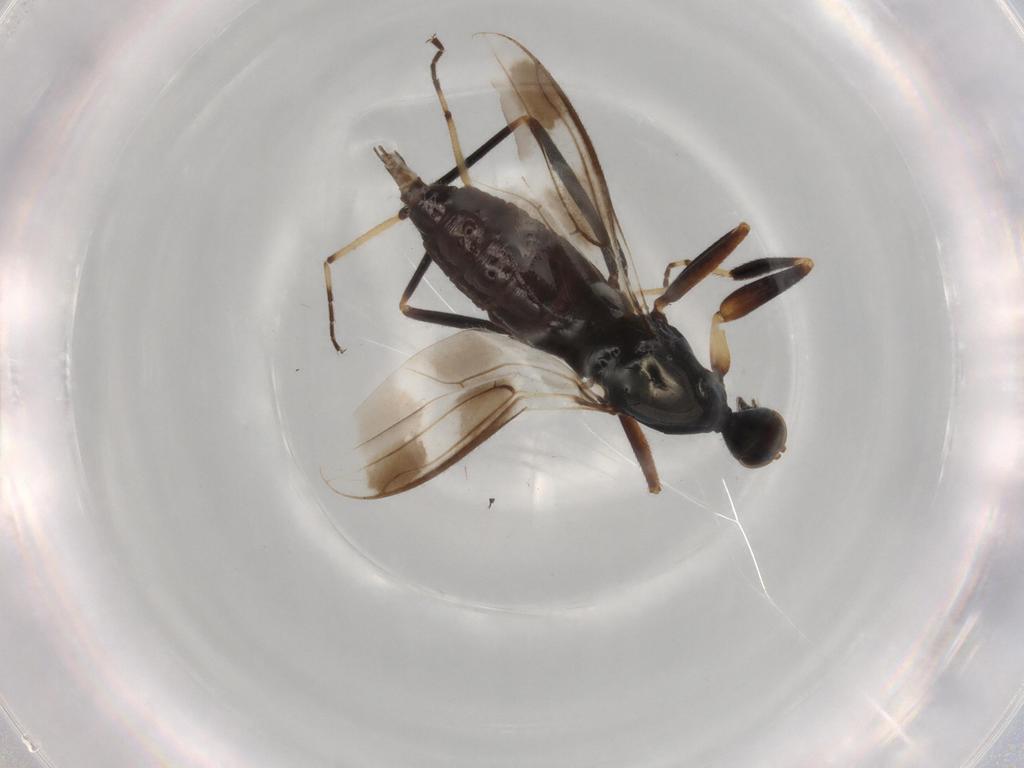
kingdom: Animalia
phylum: Arthropoda
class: Insecta
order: Diptera
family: Hybotidae
